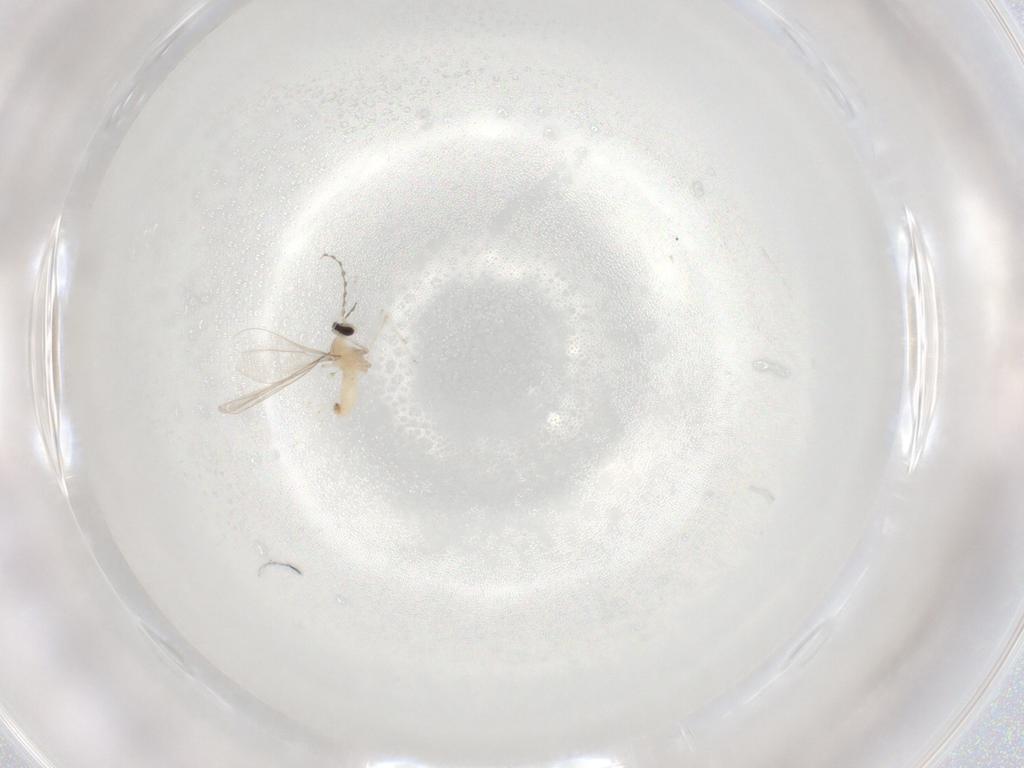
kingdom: Animalia
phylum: Arthropoda
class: Insecta
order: Diptera
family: Cecidomyiidae
